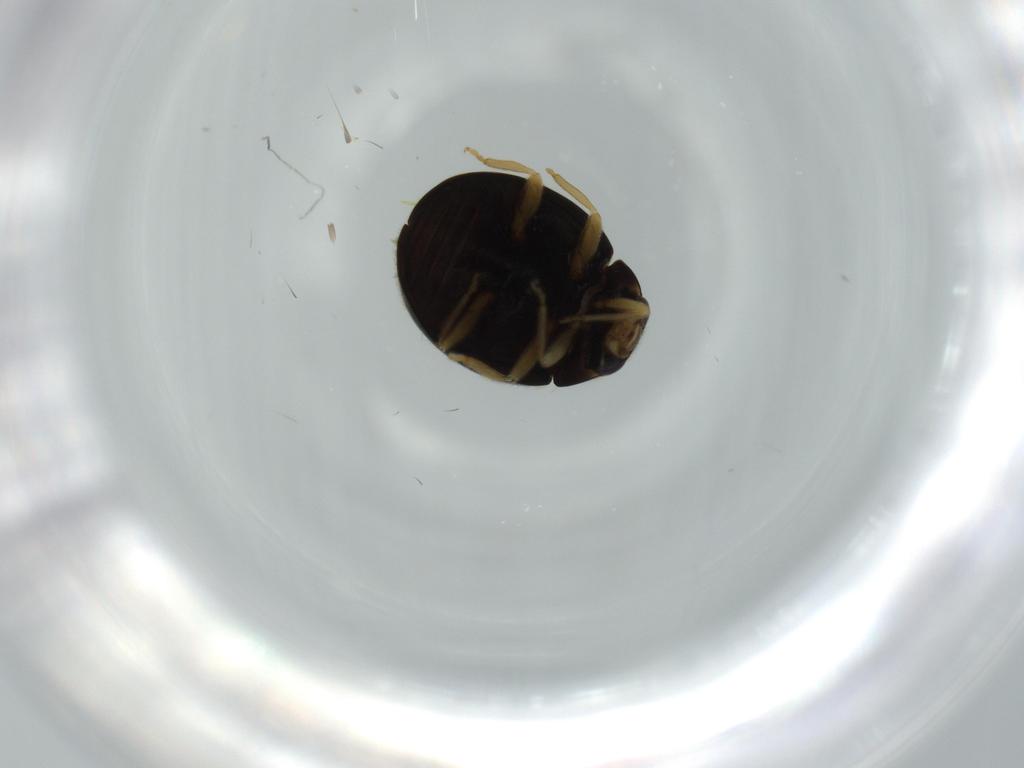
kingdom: Animalia
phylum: Arthropoda
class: Insecta
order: Coleoptera
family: Coccinellidae
